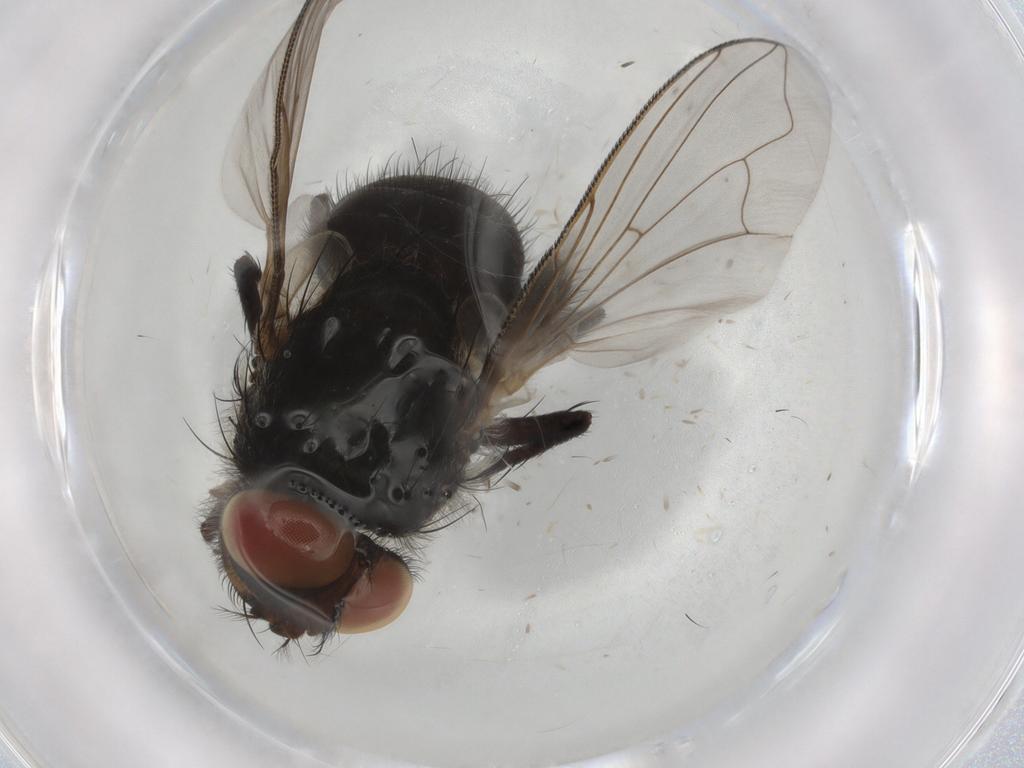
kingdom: Animalia
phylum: Arthropoda
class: Insecta
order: Diptera
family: Polleniidae
